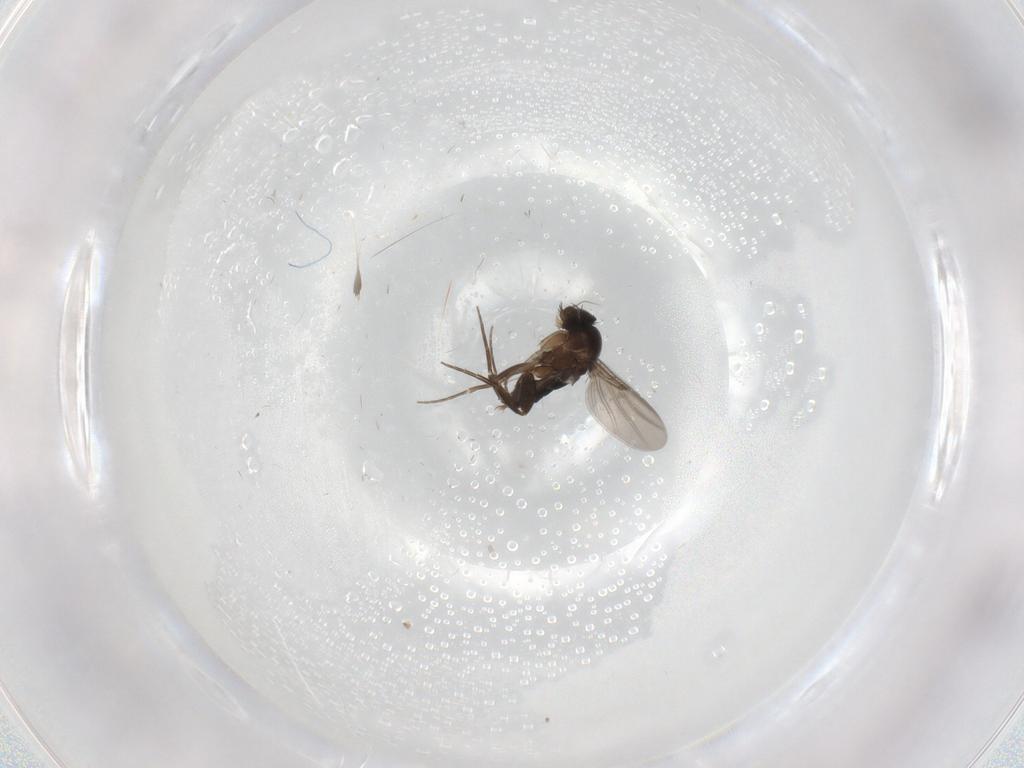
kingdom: Animalia
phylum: Arthropoda
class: Insecta
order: Diptera
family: Phoridae
